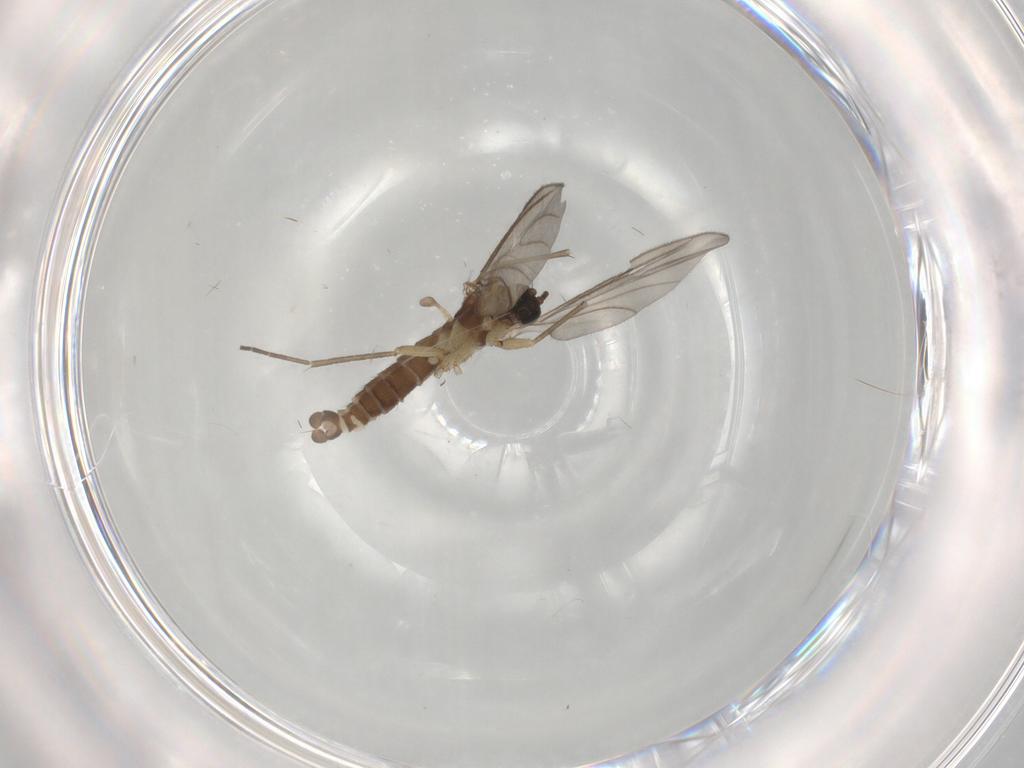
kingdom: Animalia
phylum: Arthropoda
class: Insecta
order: Diptera
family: Sciaridae
